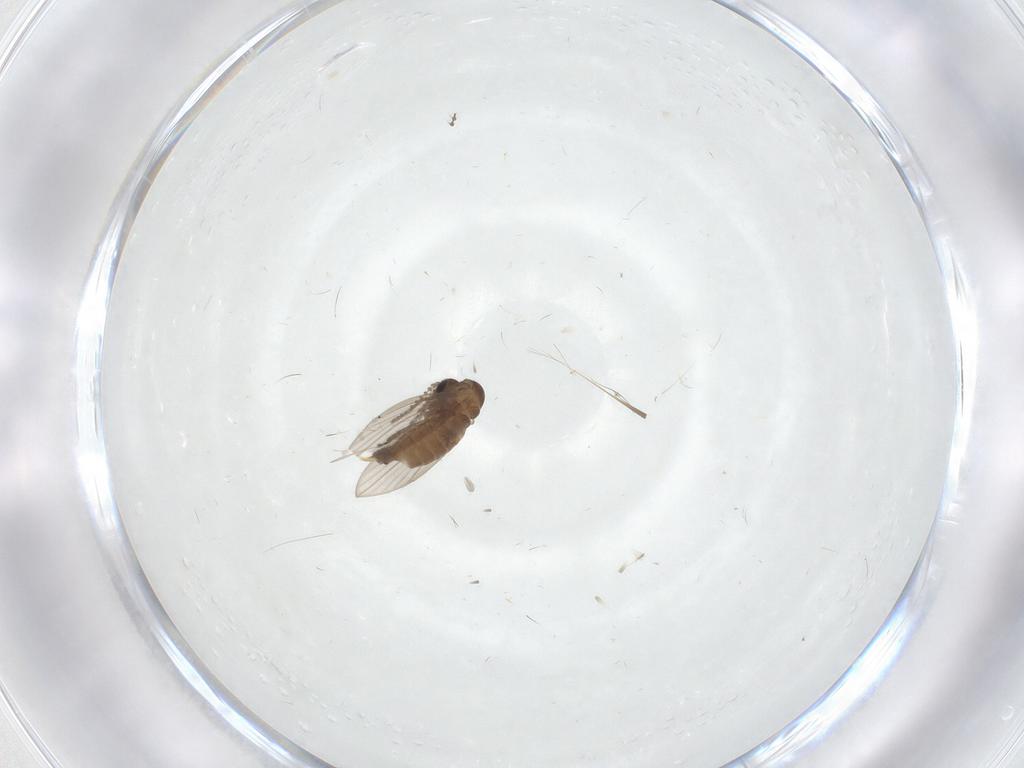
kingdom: Animalia
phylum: Arthropoda
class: Insecta
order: Diptera
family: Psychodidae
